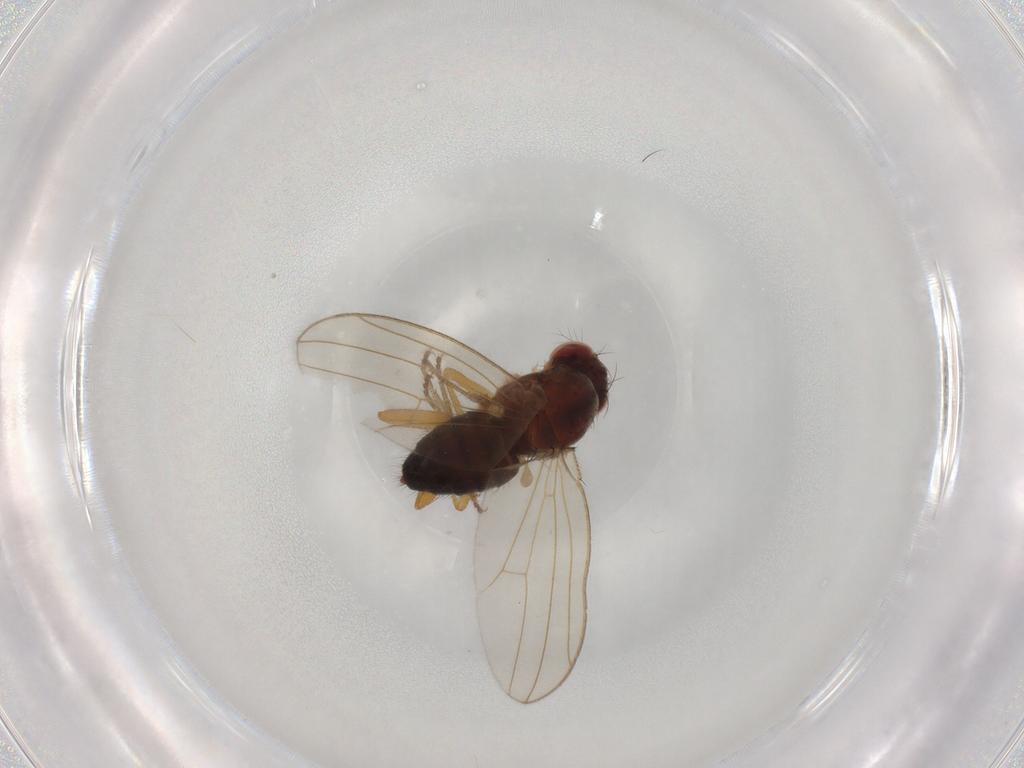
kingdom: Animalia
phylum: Arthropoda
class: Insecta
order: Diptera
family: Drosophilidae
